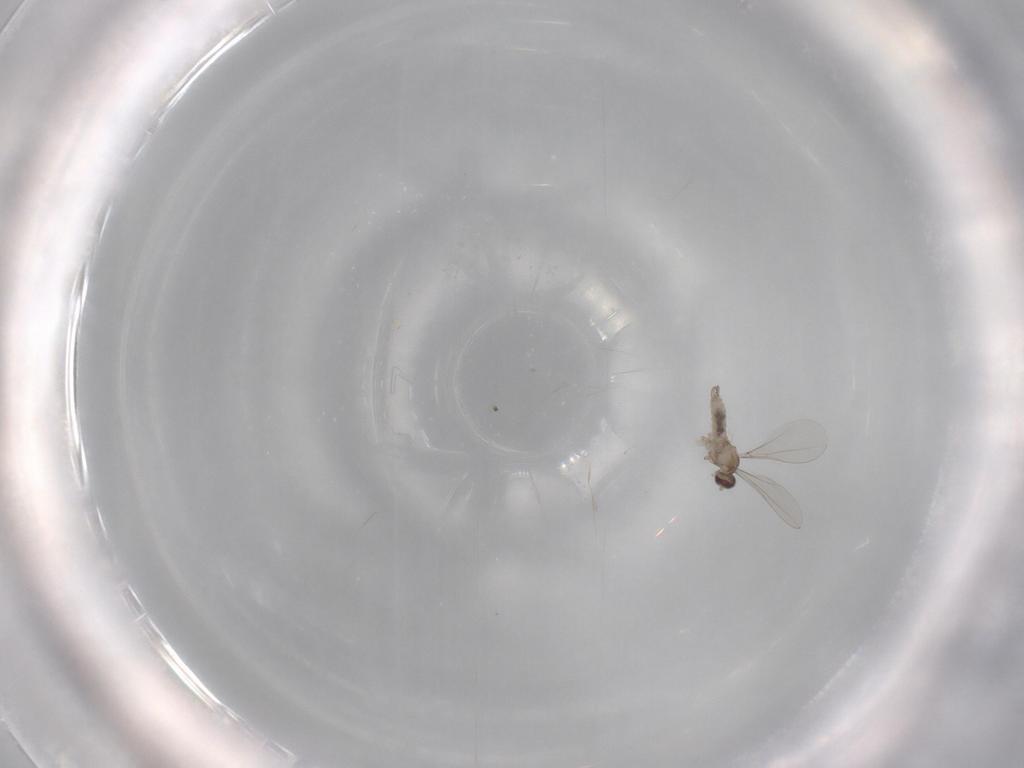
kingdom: Animalia
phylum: Arthropoda
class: Insecta
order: Diptera
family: Cecidomyiidae
